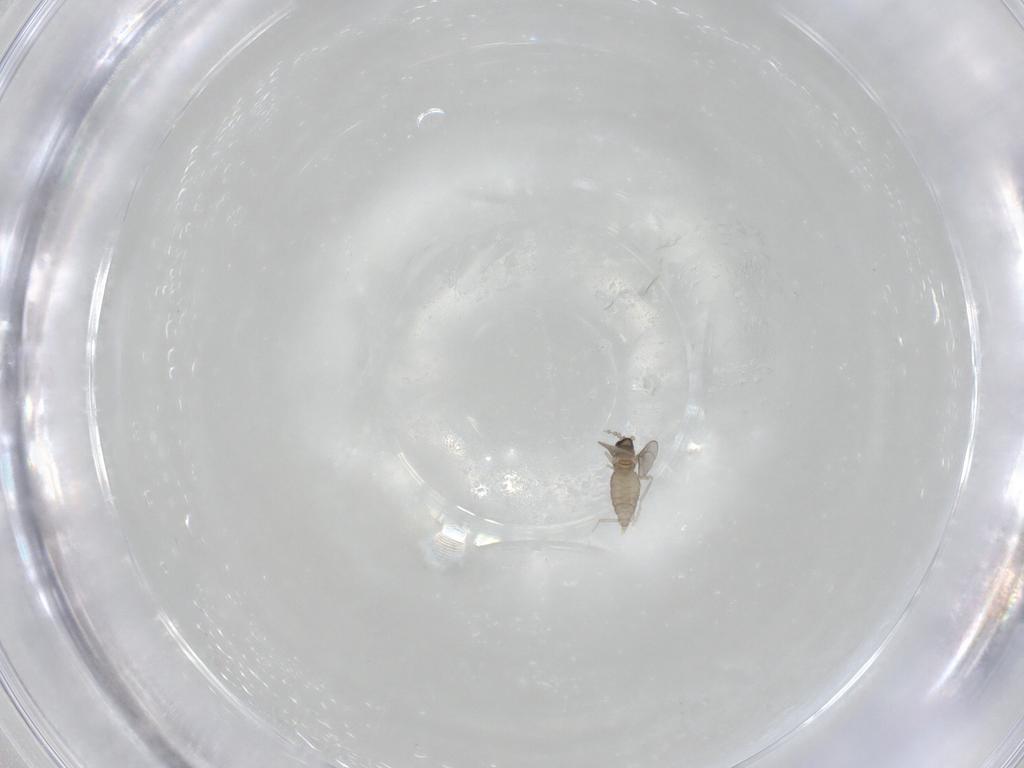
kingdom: Animalia
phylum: Arthropoda
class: Insecta
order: Diptera
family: Cecidomyiidae
